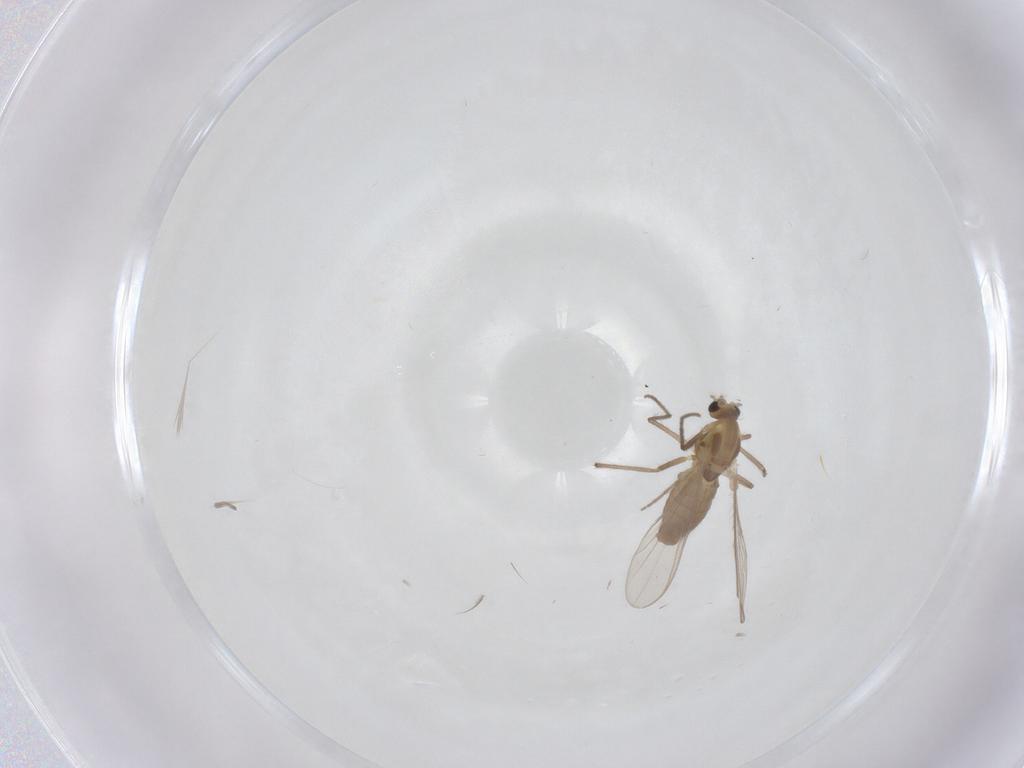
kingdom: Animalia
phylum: Arthropoda
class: Insecta
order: Diptera
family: Chironomidae
